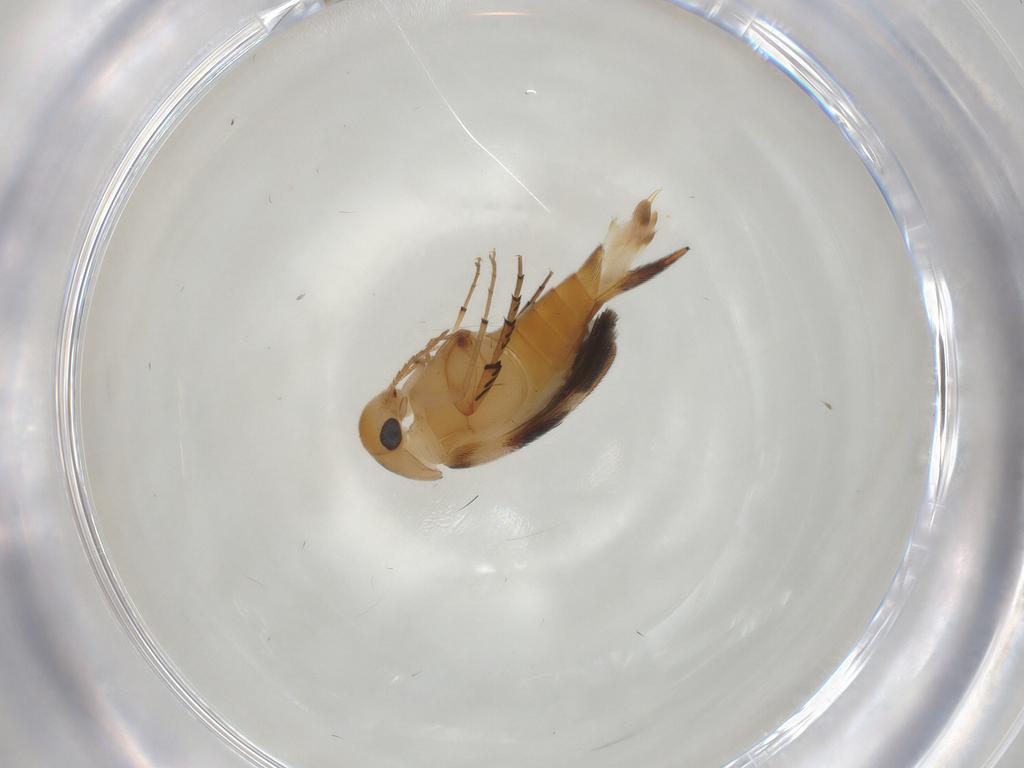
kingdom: Animalia
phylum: Arthropoda
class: Insecta
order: Coleoptera
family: Mordellidae
